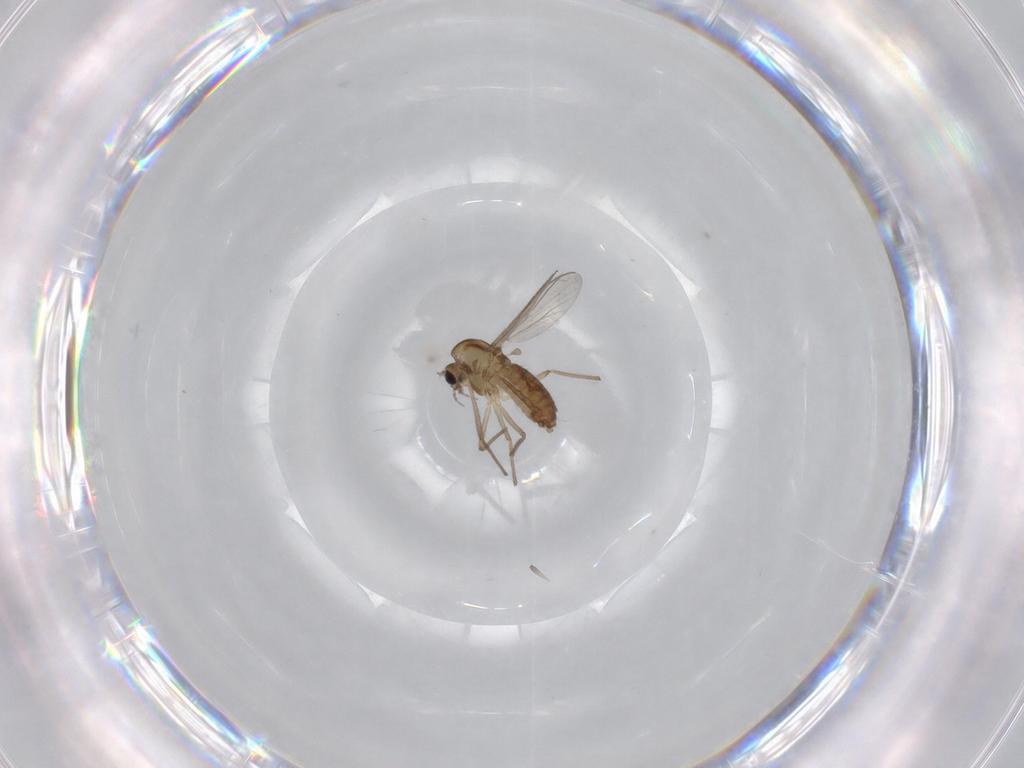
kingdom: Animalia
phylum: Arthropoda
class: Insecta
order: Diptera
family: Chironomidae
